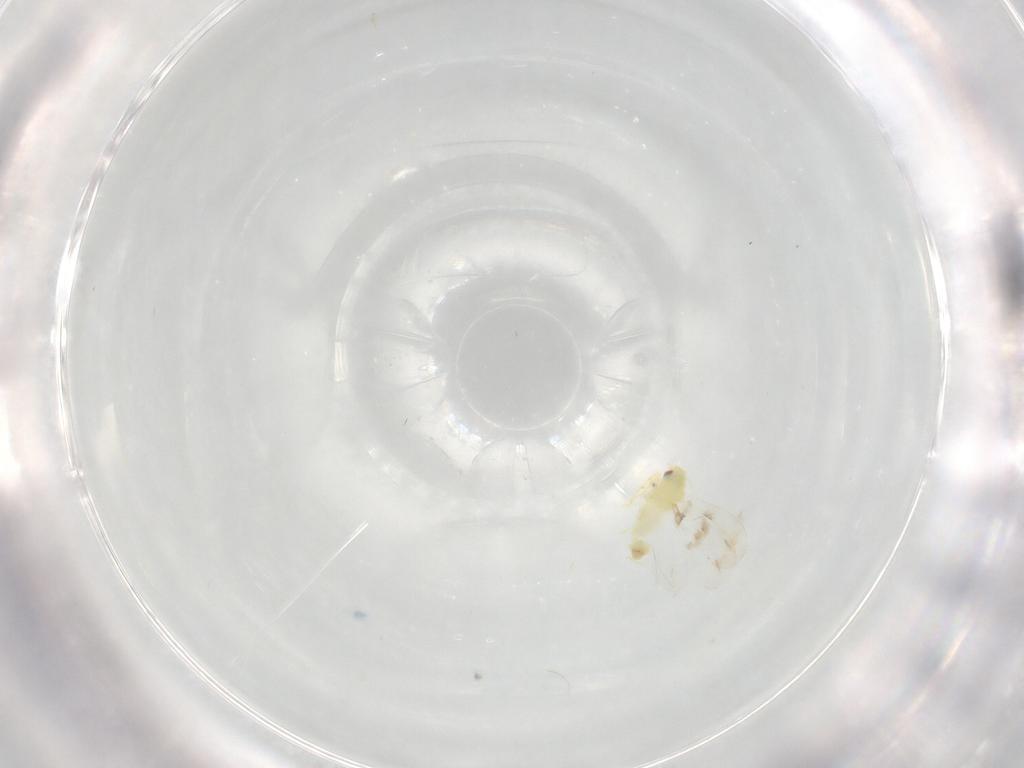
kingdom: Animalia
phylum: Arthropoda
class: Insecta
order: Hemiptera
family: Aleyrodidae
